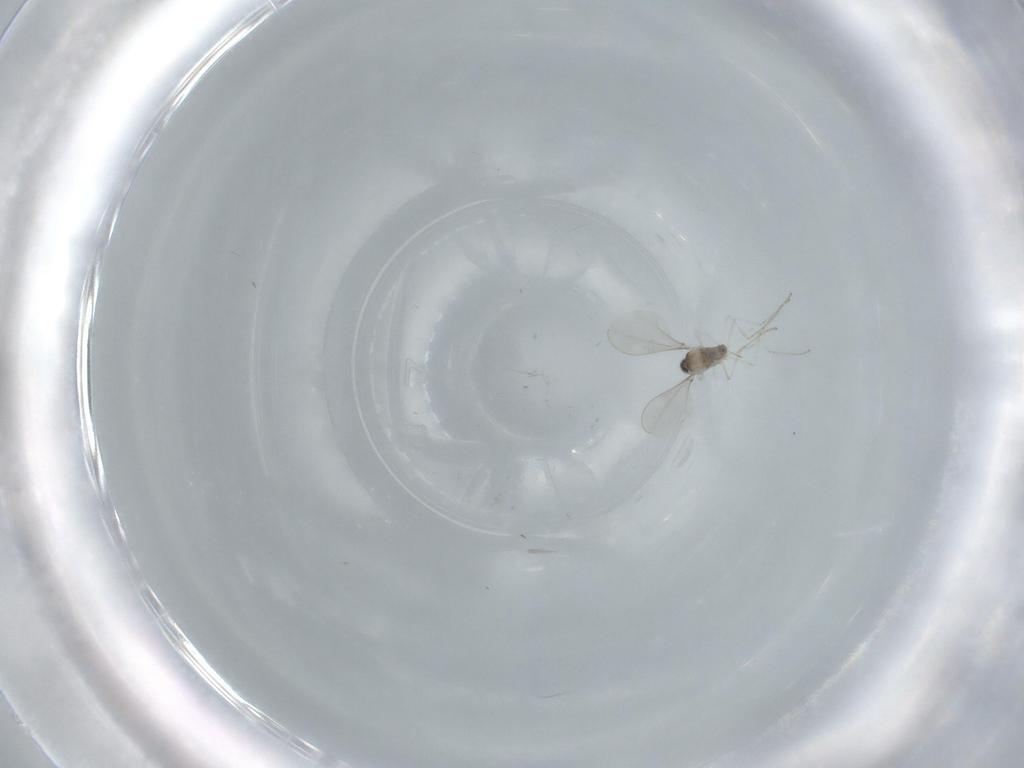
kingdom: Animalia
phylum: Arthropoda
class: Insecta
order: Diptera
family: Cecidomyiidae
